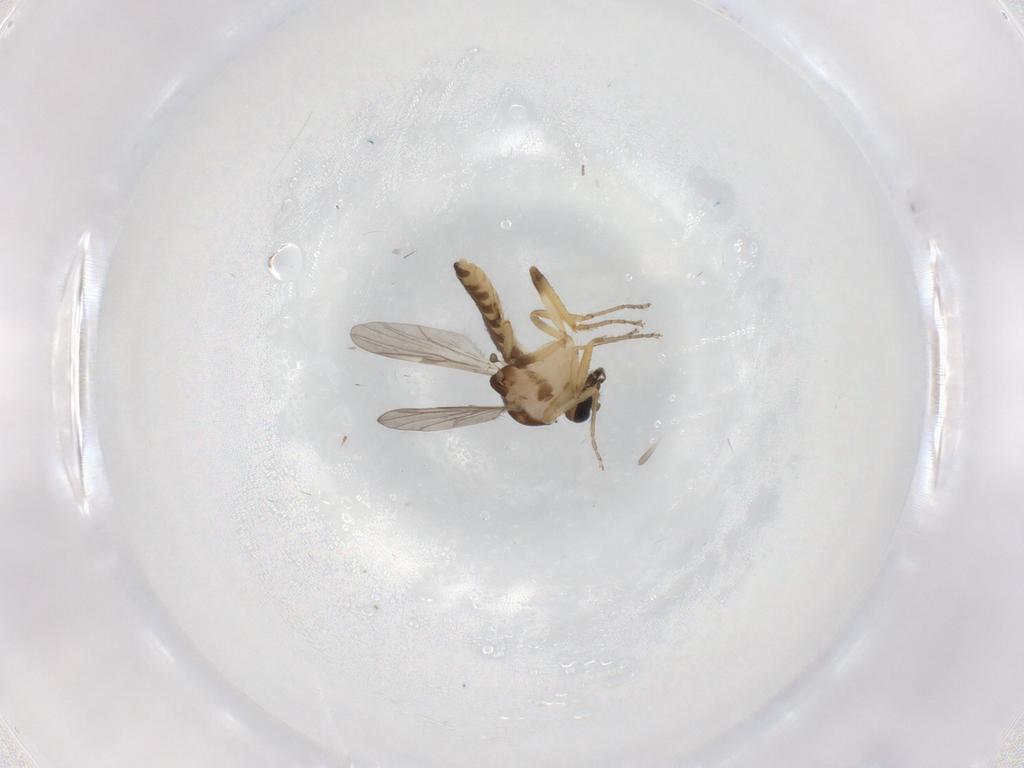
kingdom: Animalia
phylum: Arthropoda
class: Insecta
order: Diptera
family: Ceratopogonidae
